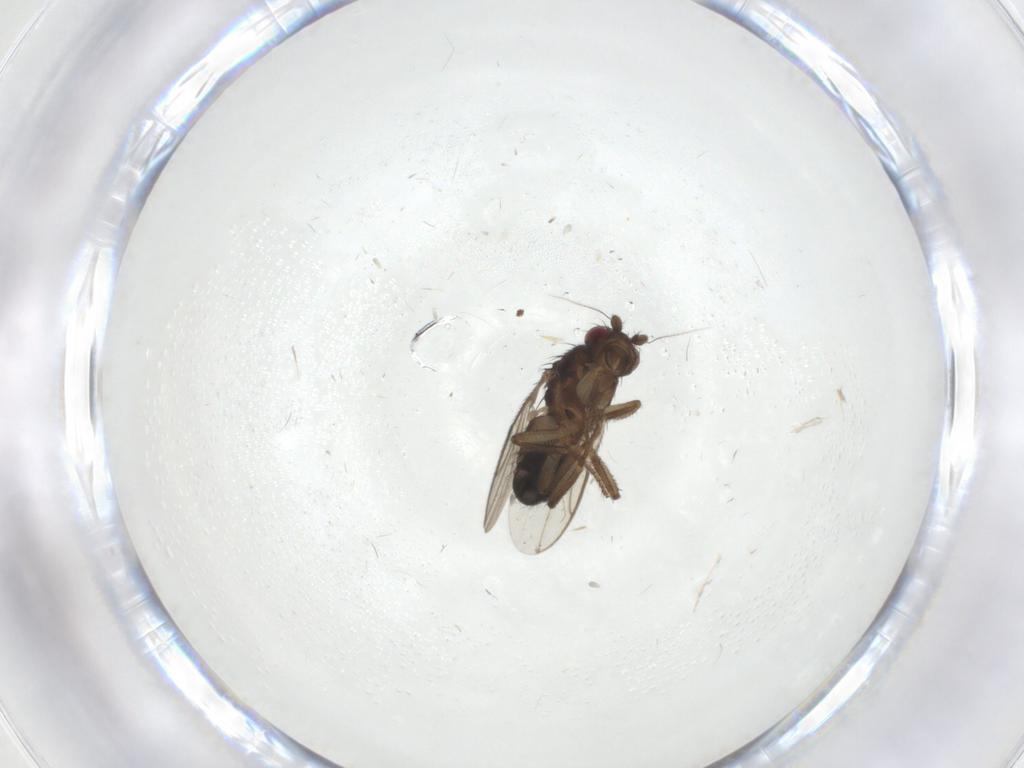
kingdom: Animalia
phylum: Arthropoda
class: Insecta
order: Diptera
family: Sphaeroceridae
